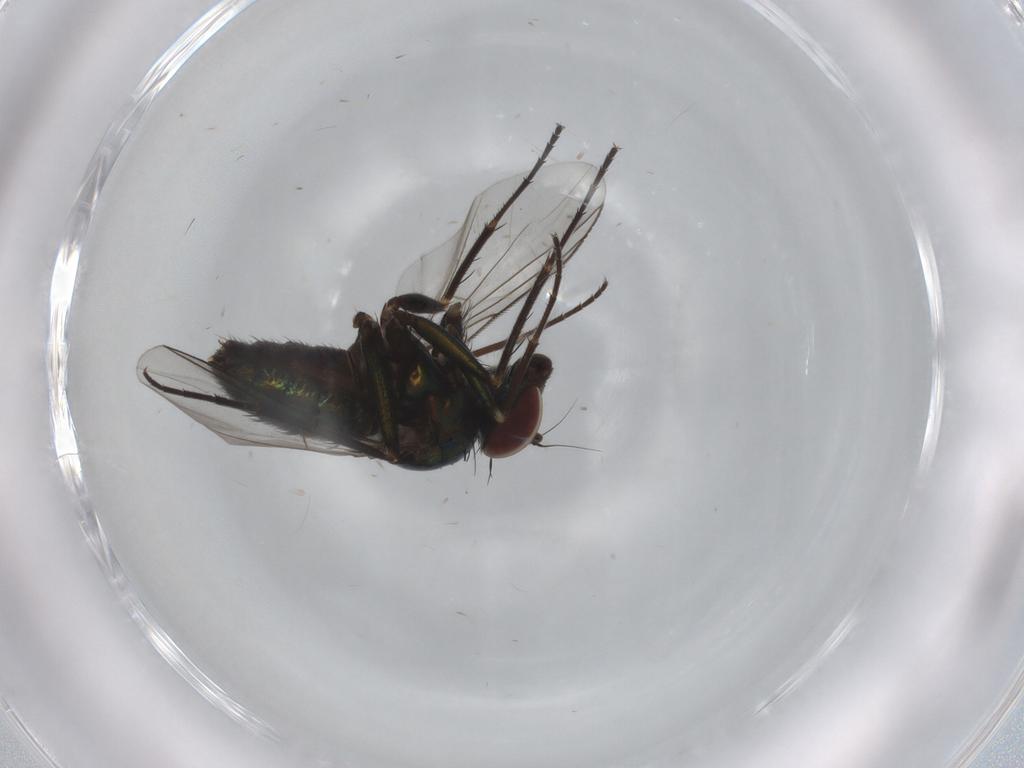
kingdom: Animalia
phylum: Arthropoda
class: Insecta
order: Diptera
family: Dolichopodidae
